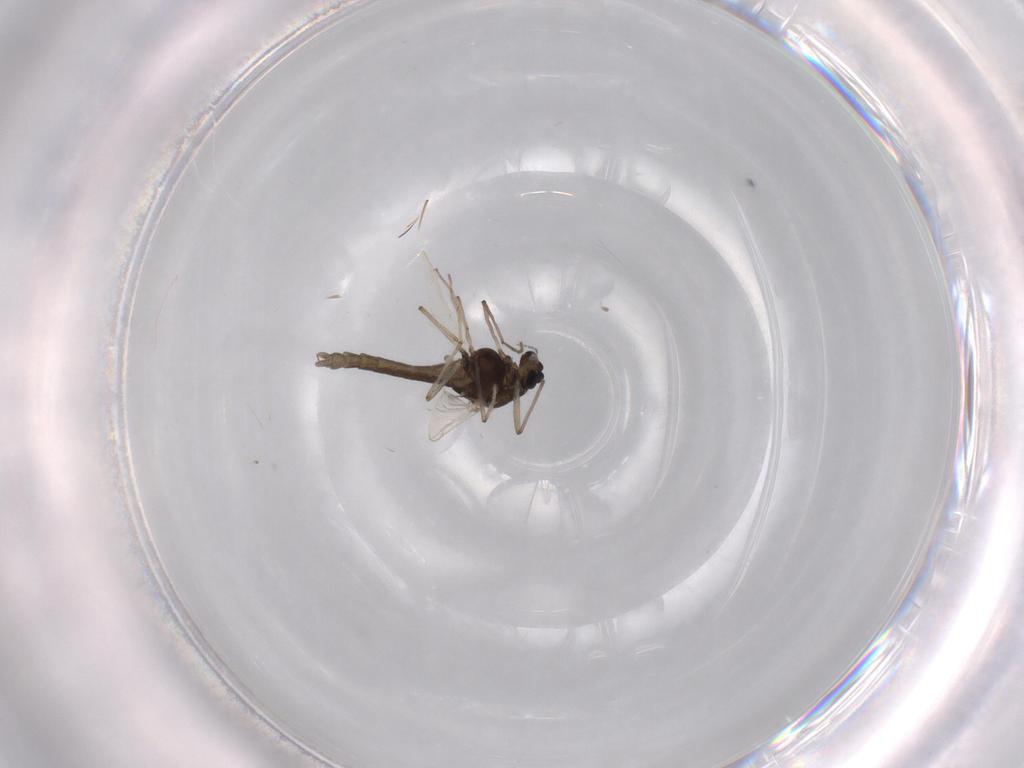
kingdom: Animalia
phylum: Arthropoda
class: Insecta
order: Diptera
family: Chironomidae
